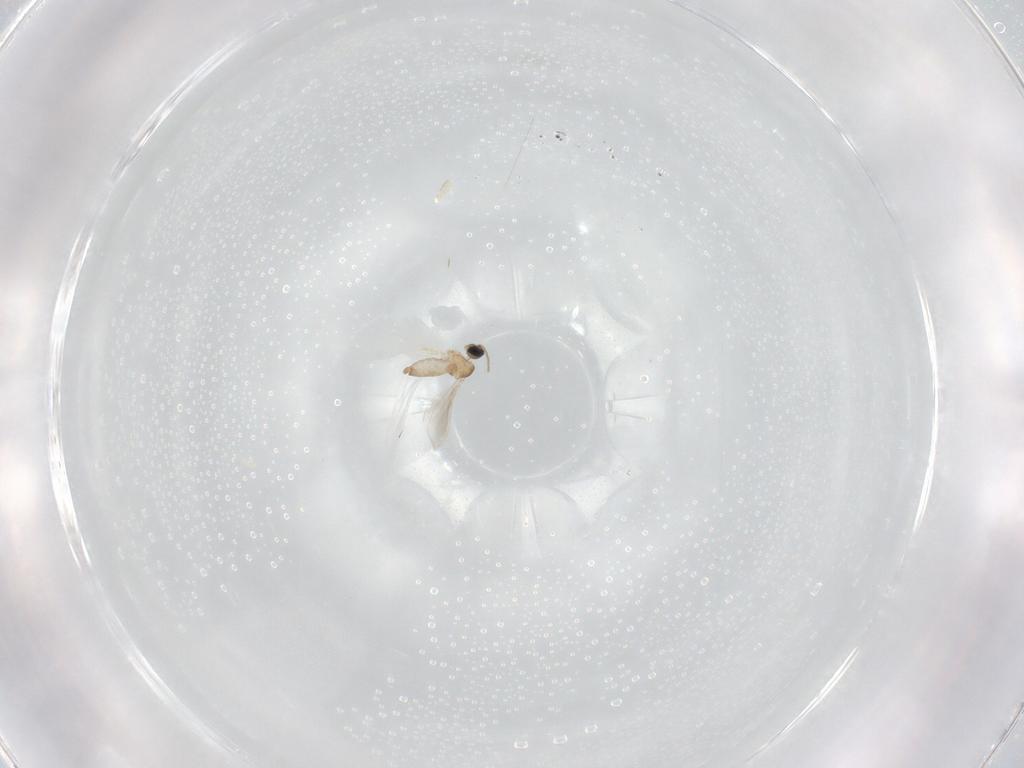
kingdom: Animalia
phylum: Arthropoda
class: Insecta
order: Diptera
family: Cecidomyiidae
